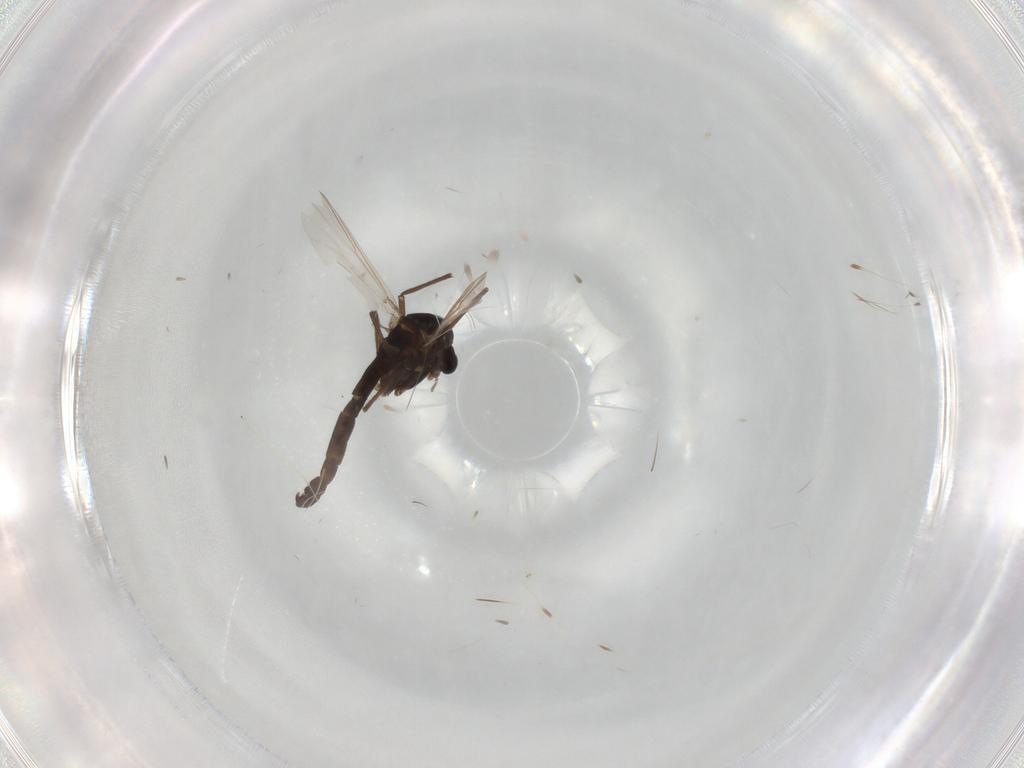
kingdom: Animalia
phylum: Arthropoda
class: Insecta
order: Diptera
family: Chironomidae
